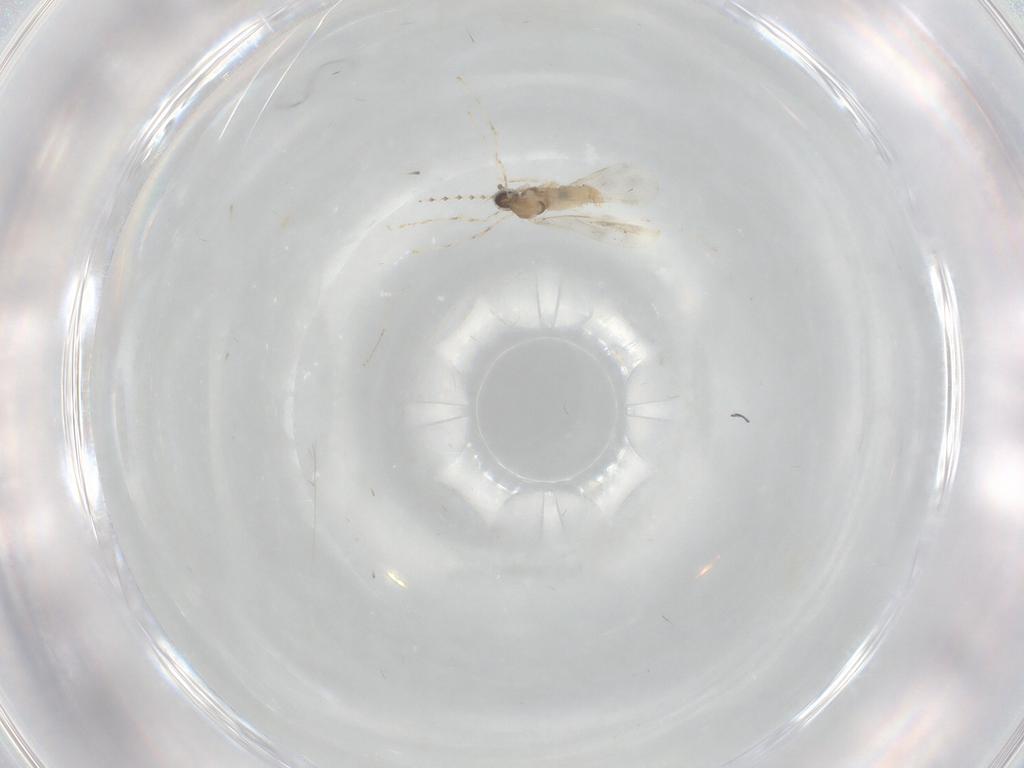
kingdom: Animalia
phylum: Arthropoda
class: Insecta
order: Diptera
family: Cecidomyiidae
